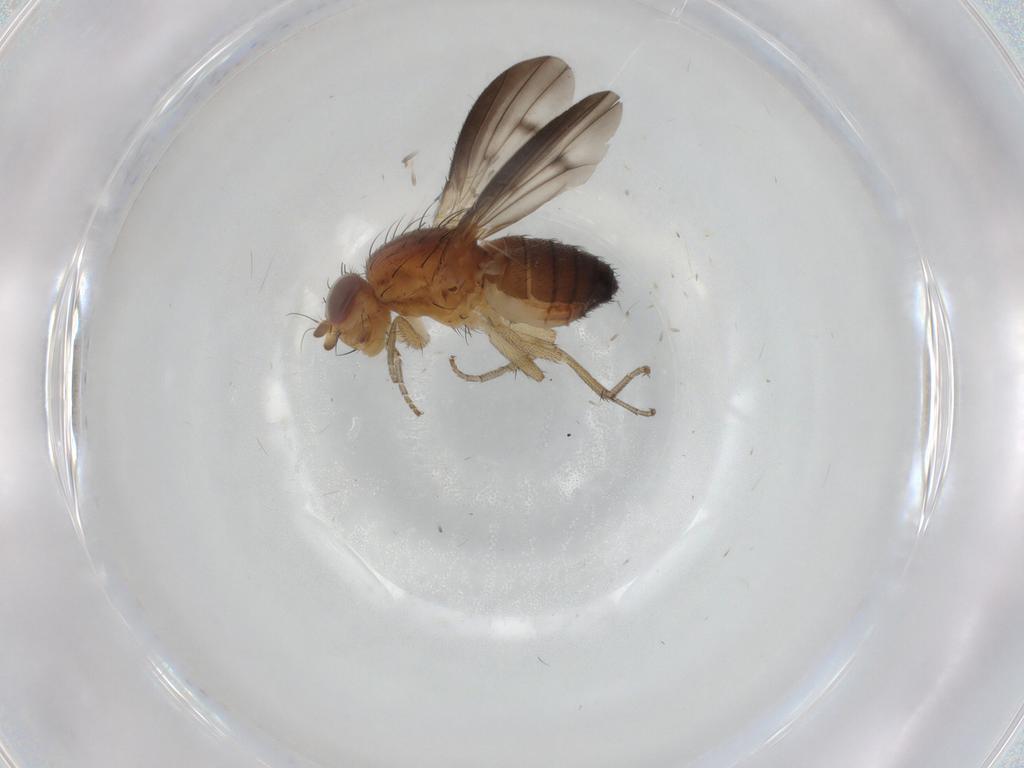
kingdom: Animalia
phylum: Arthropoda
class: Insecta
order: Diptera
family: Heleomyzidae
